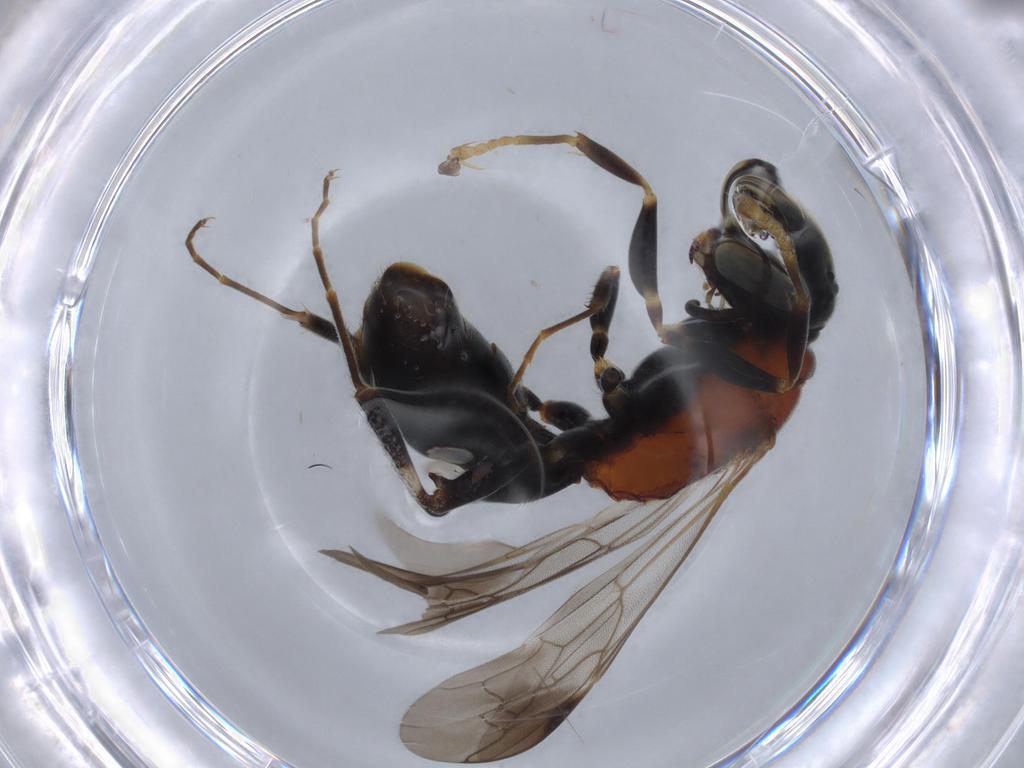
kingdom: Animalia
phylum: Arthropoda
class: Insecta
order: Hymenoptera
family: Bembicidae
